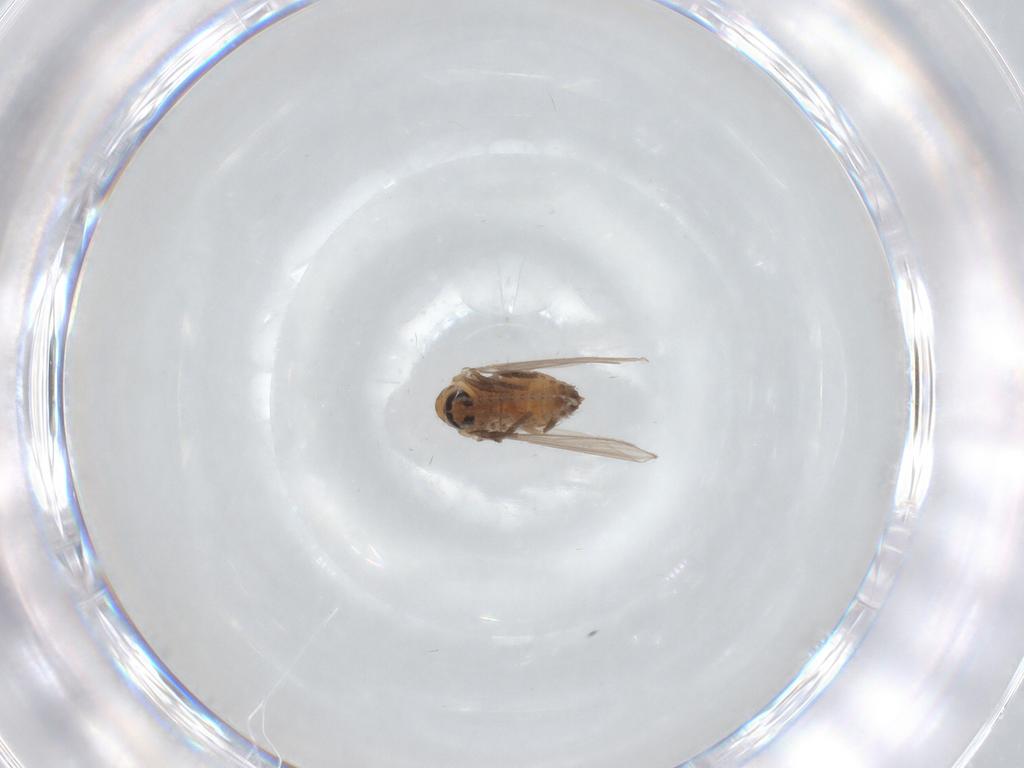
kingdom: Animalia
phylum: Arthropoda
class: Insecta
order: Diptera
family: Psychodidae
